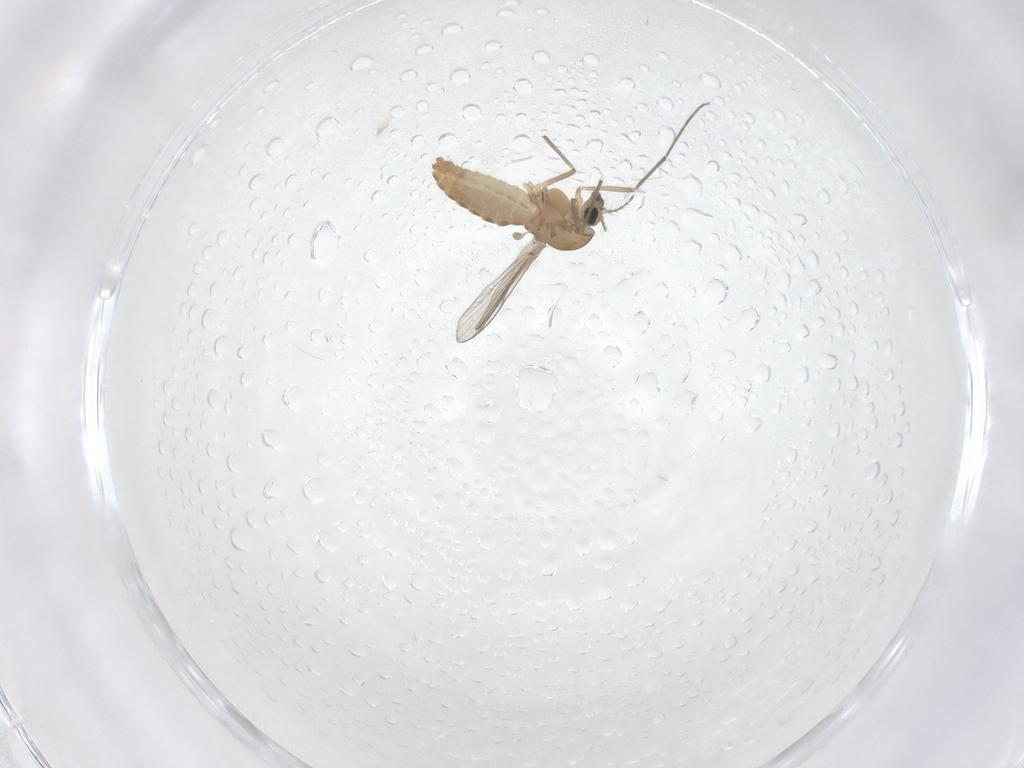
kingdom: Animalia
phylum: Arthropoda
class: Insecta
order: Diptera
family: Chironomidae
